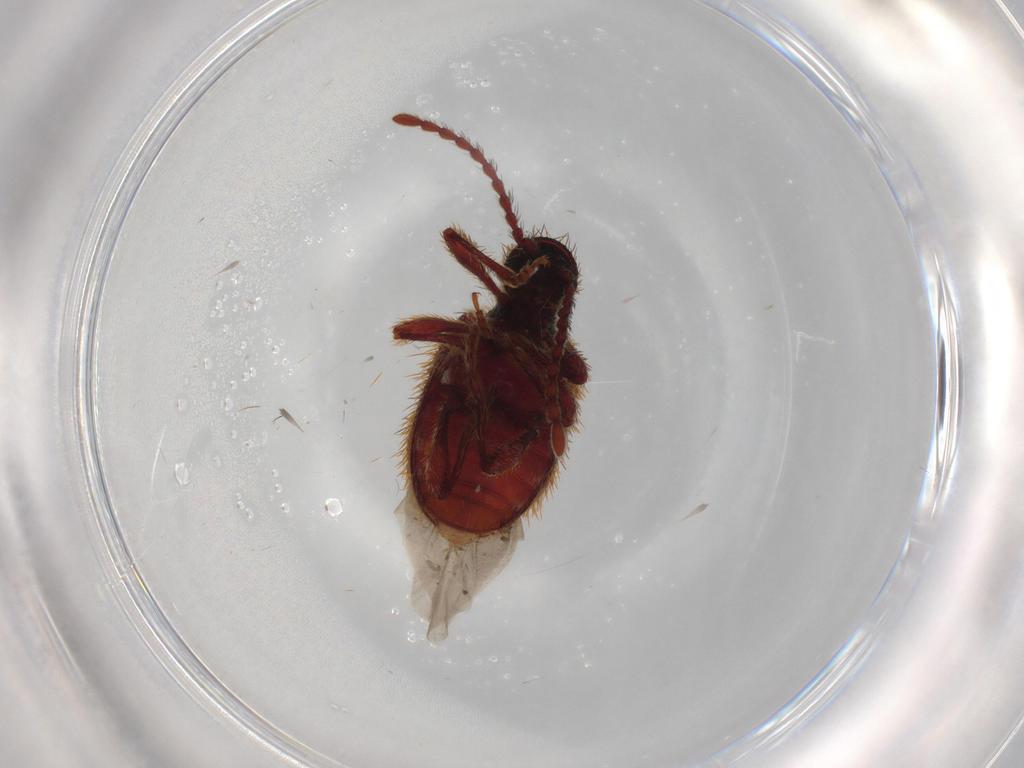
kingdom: Animalia
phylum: Arthropoda
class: Insecta
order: Coleoptera
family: Ptinidae
